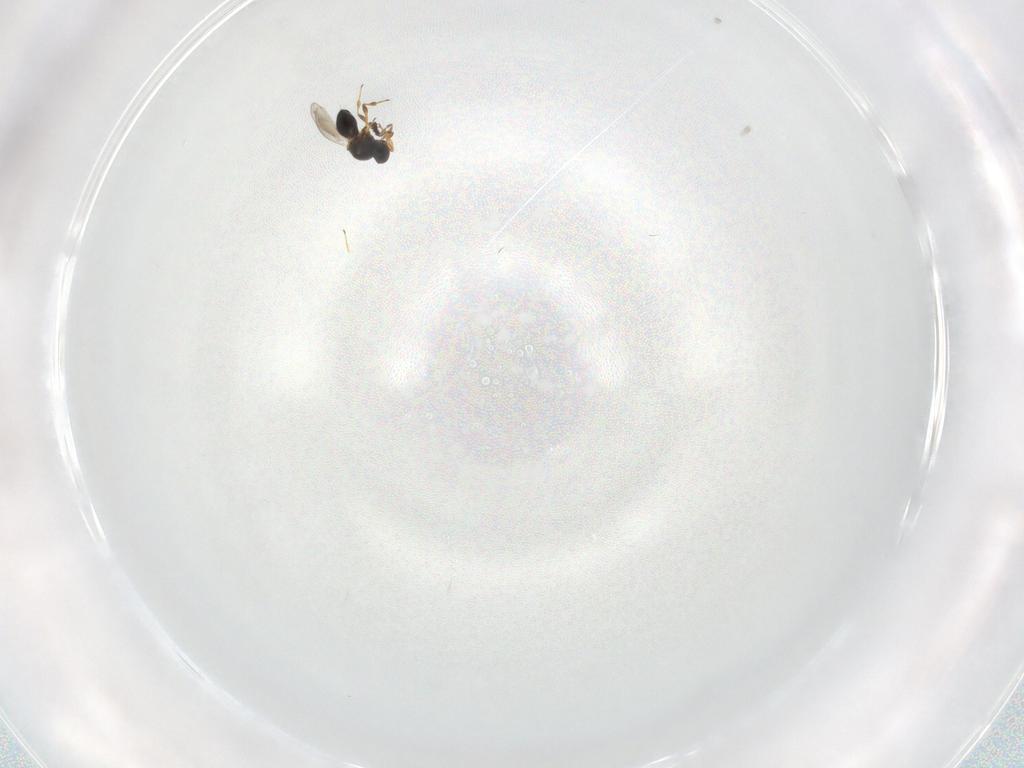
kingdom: Animalia
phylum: Arthropoda
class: Insecta
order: Hymenoptera
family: Platygastridae
